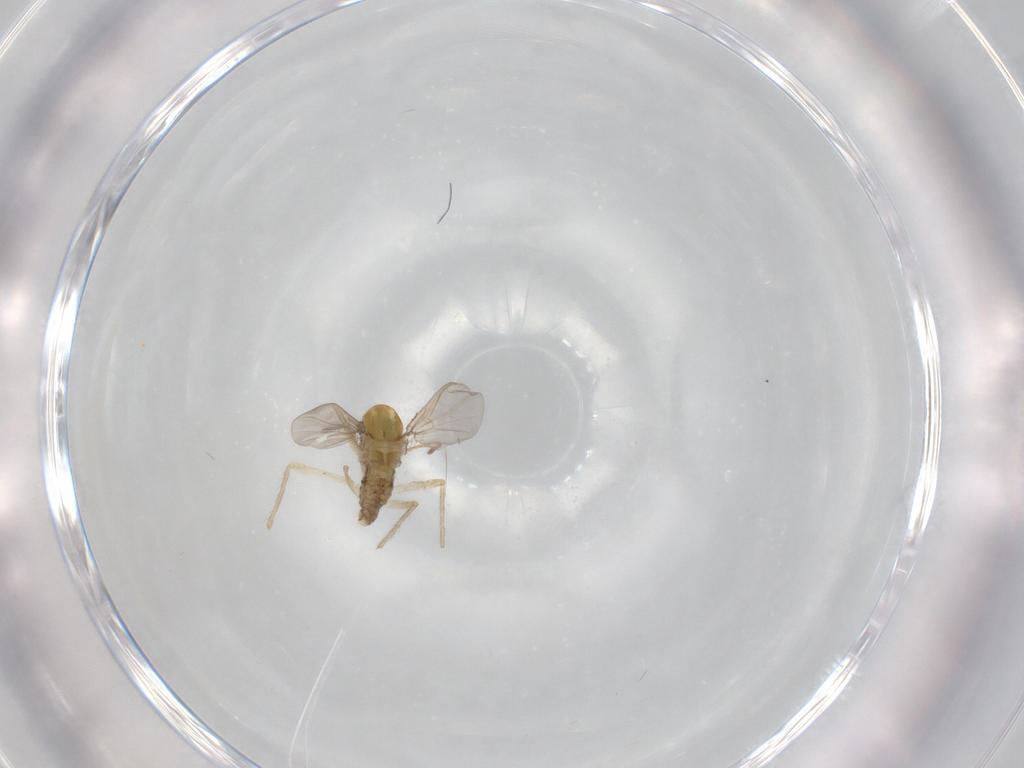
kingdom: Animalia
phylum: Arthropoda
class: Insecta
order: Diptera
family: Chironomidae
